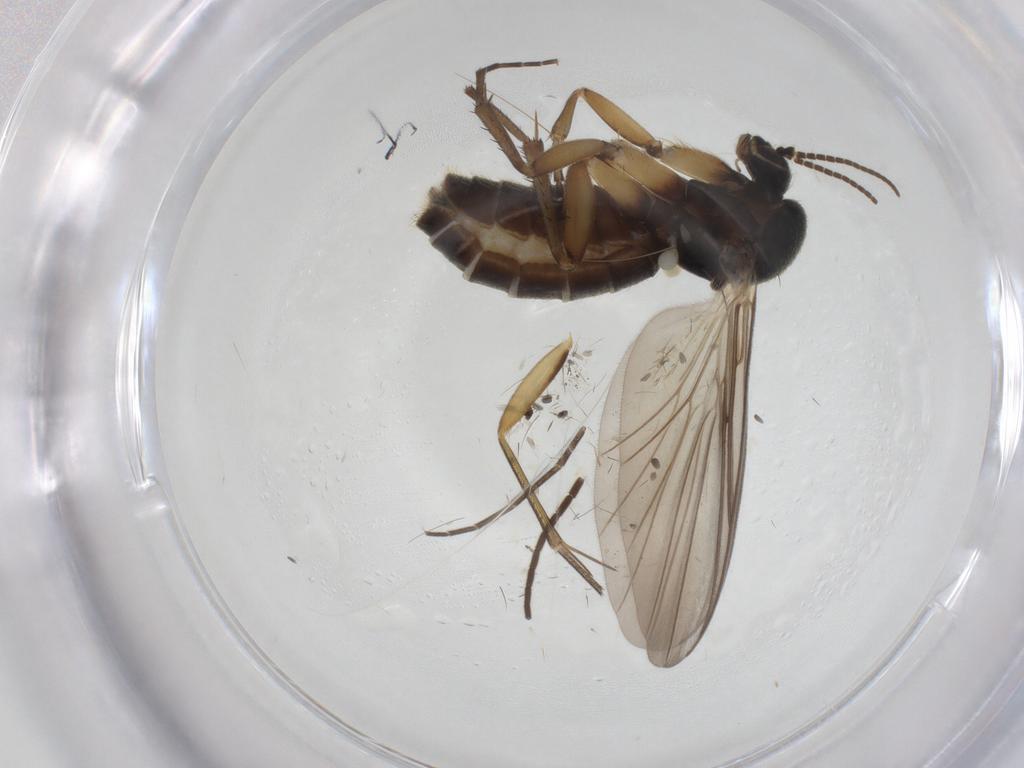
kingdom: Animalia
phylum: Arthropoda
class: Insecta
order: Diptera
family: Mycetophilidae
